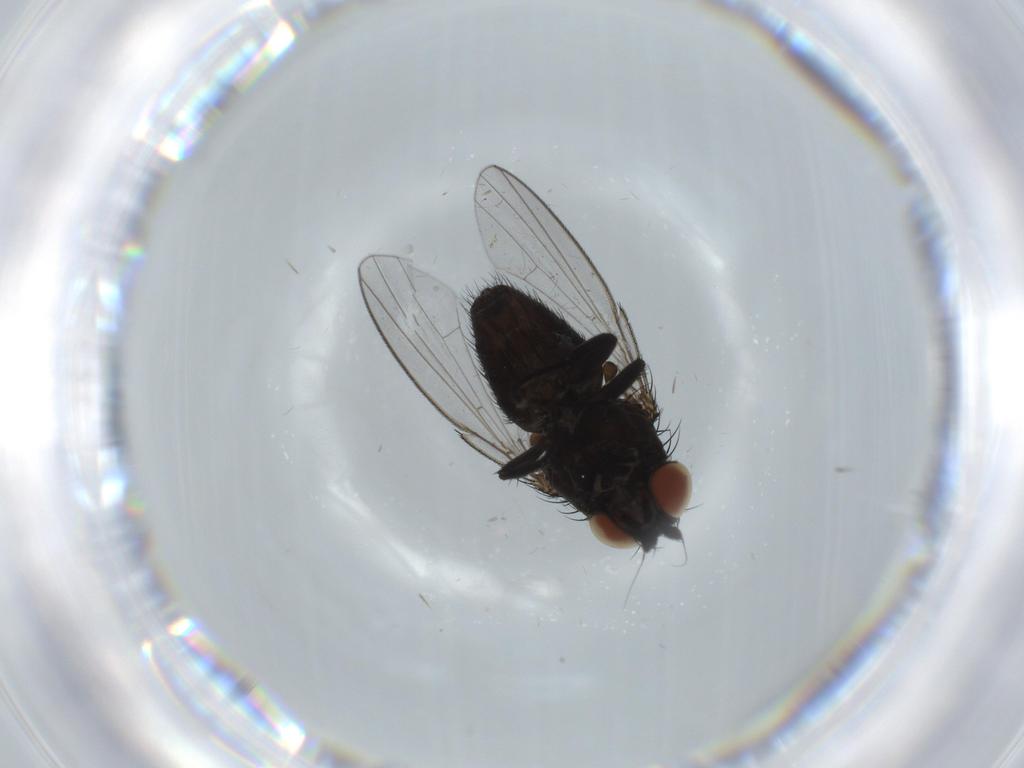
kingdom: Animalia
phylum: Arthropoda
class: Insecta
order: Diptera
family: Milichiidae
